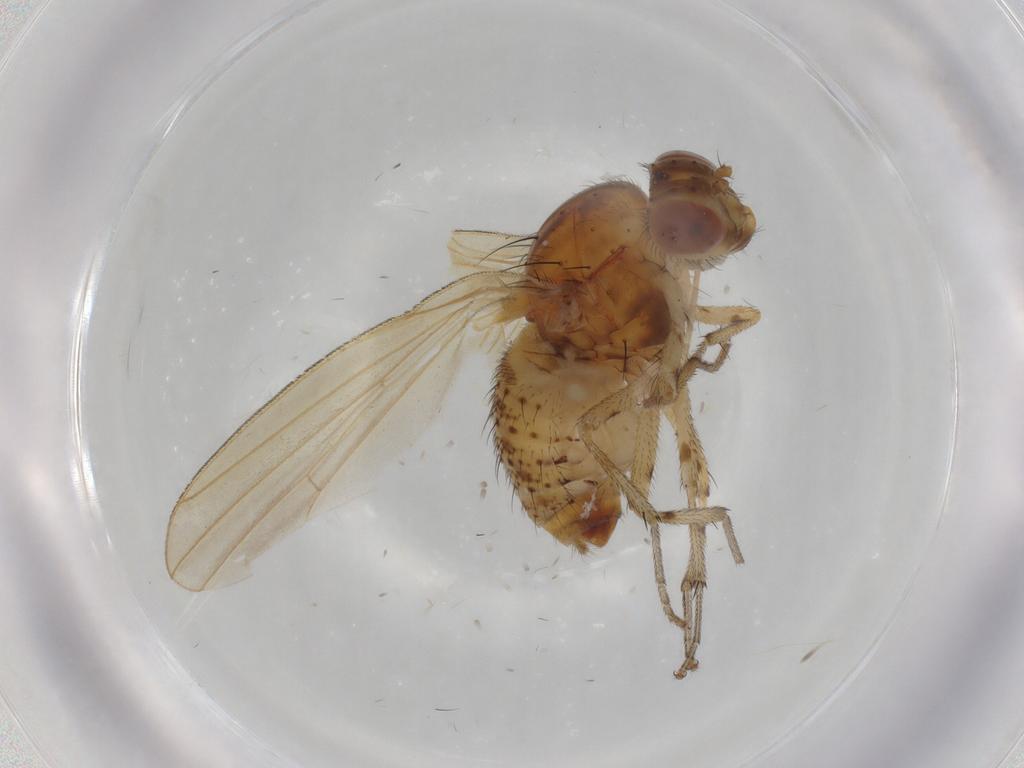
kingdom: Animalia
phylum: Arthropoda
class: Insecta
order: Diptera
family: Lauxaniidae
